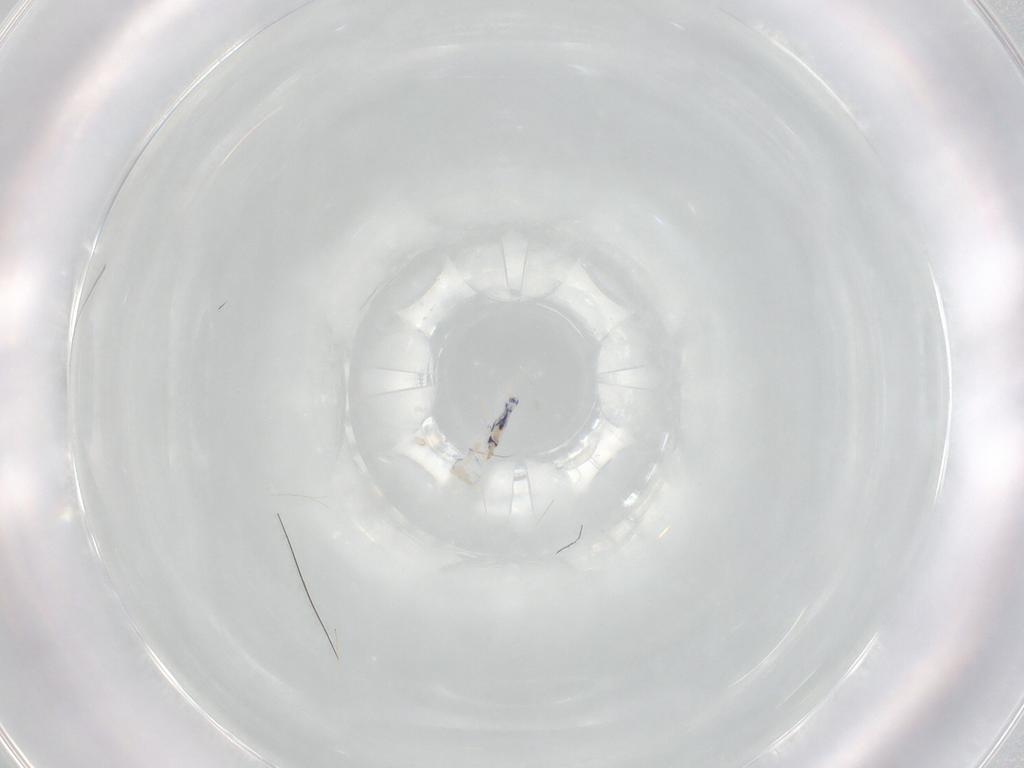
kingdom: Animalia
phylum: Arthropoda
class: Collembola
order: Entomobryomorpha
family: Entomobryidae
